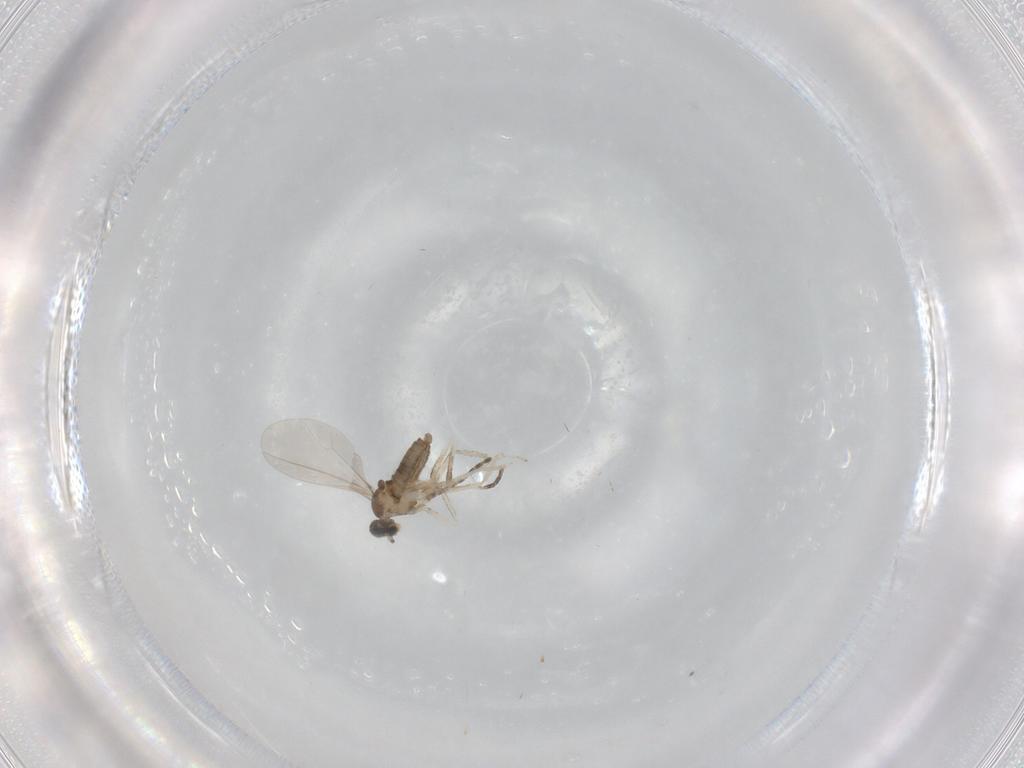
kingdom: Animalia
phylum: Arthropoda
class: Insecta
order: Diptera
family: Cecidomyiidae
